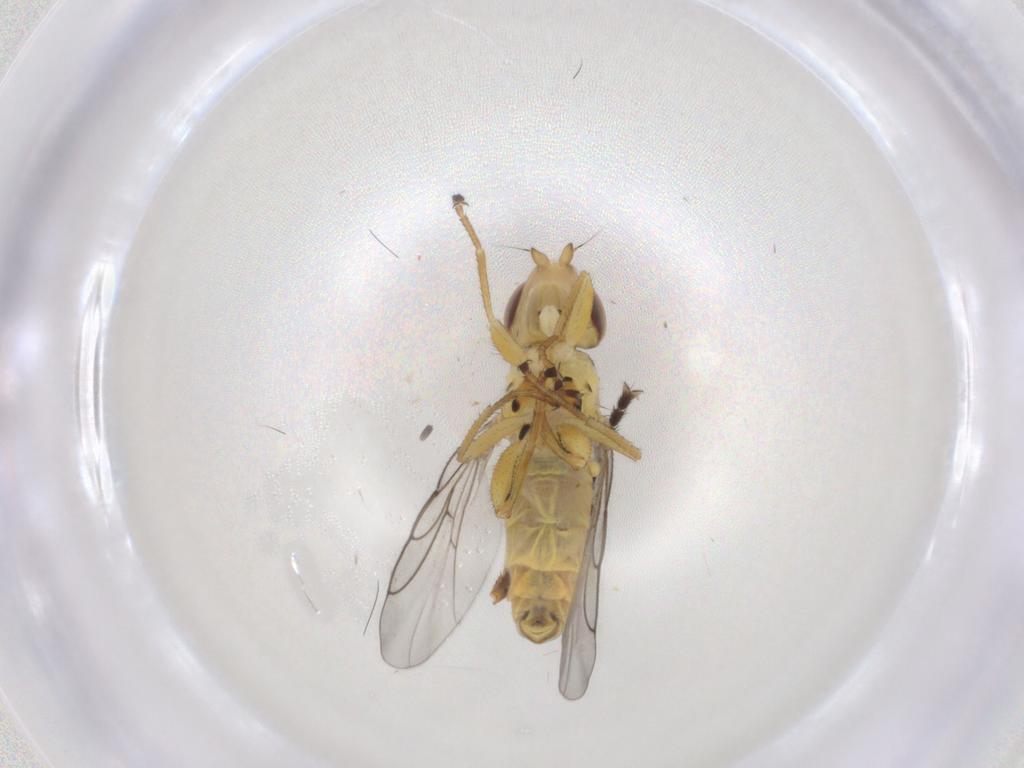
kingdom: Animalia
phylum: Arthropoda
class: Insecta
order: Diptera
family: Chloropidae
